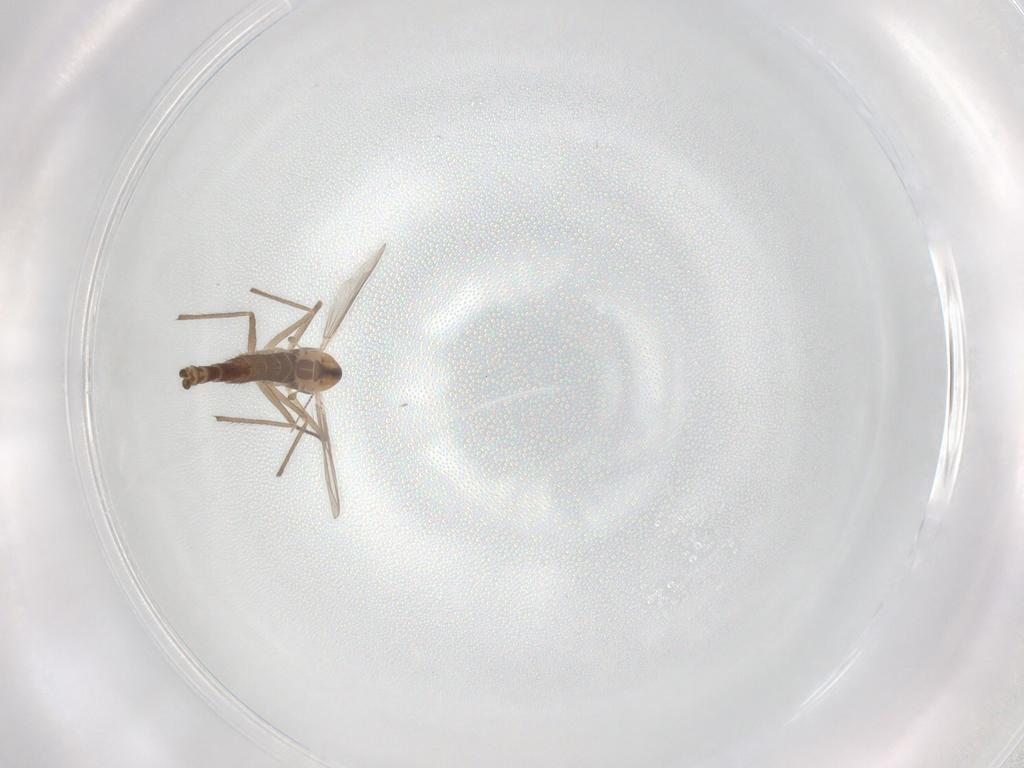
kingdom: Animalia
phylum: Arthropoda
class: Insecta
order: Diptera
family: Chironomidae
